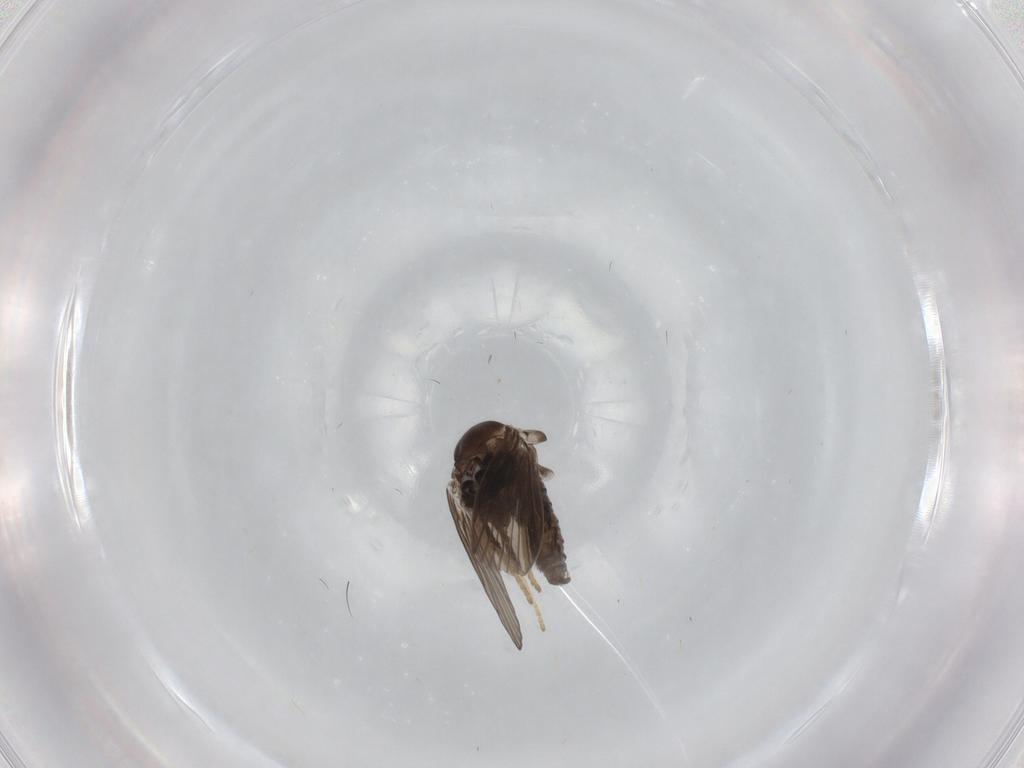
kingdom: Animalia
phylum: Arthropoda
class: Insecta
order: Diptera
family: Psychodidae
